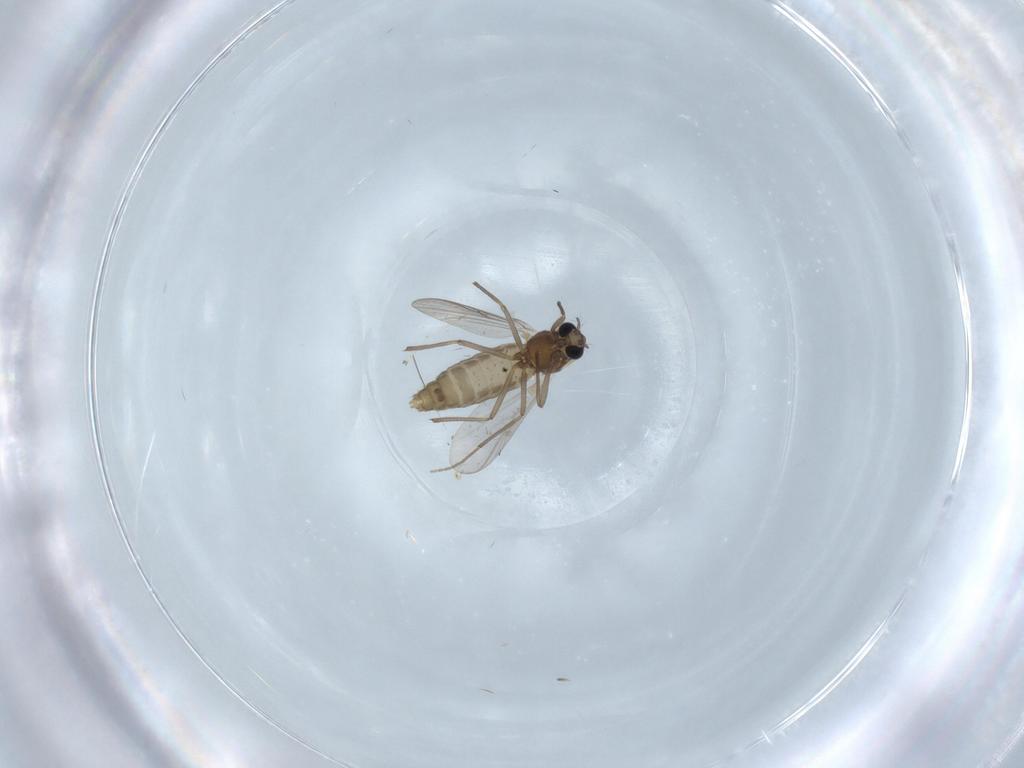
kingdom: Animalia
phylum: Arthropoda
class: Insecta
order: Diptera
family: Chironomidae
